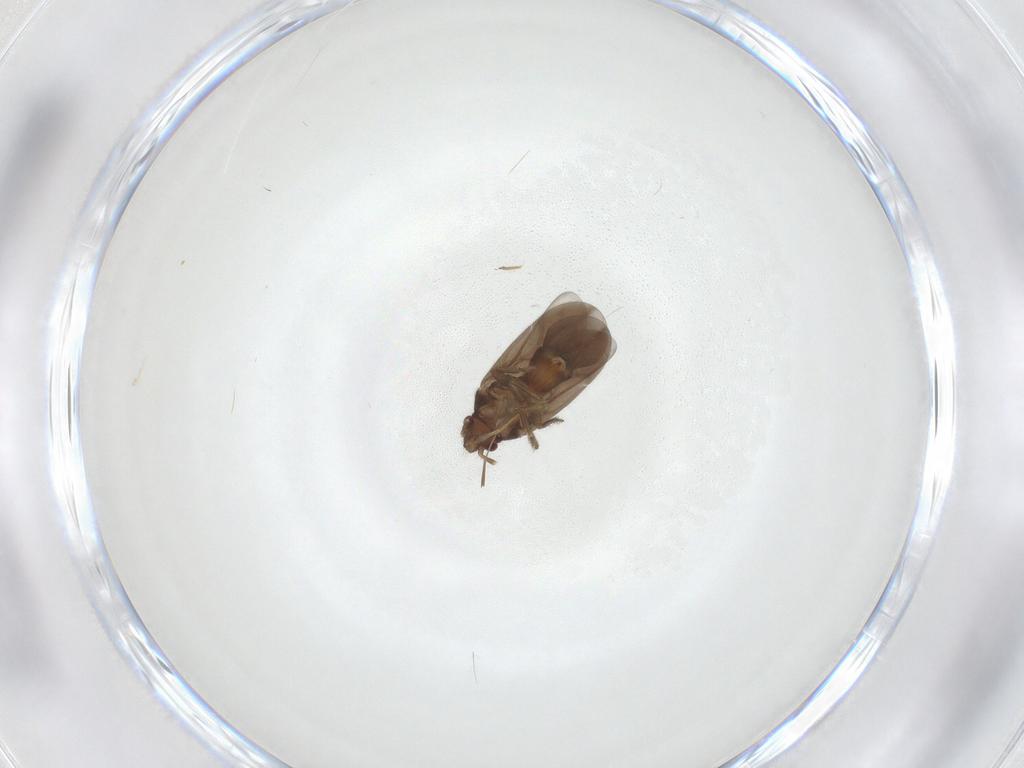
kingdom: Animalia
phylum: Arthropoda
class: Insecta
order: Hemiptera
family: Ceratocombidae
